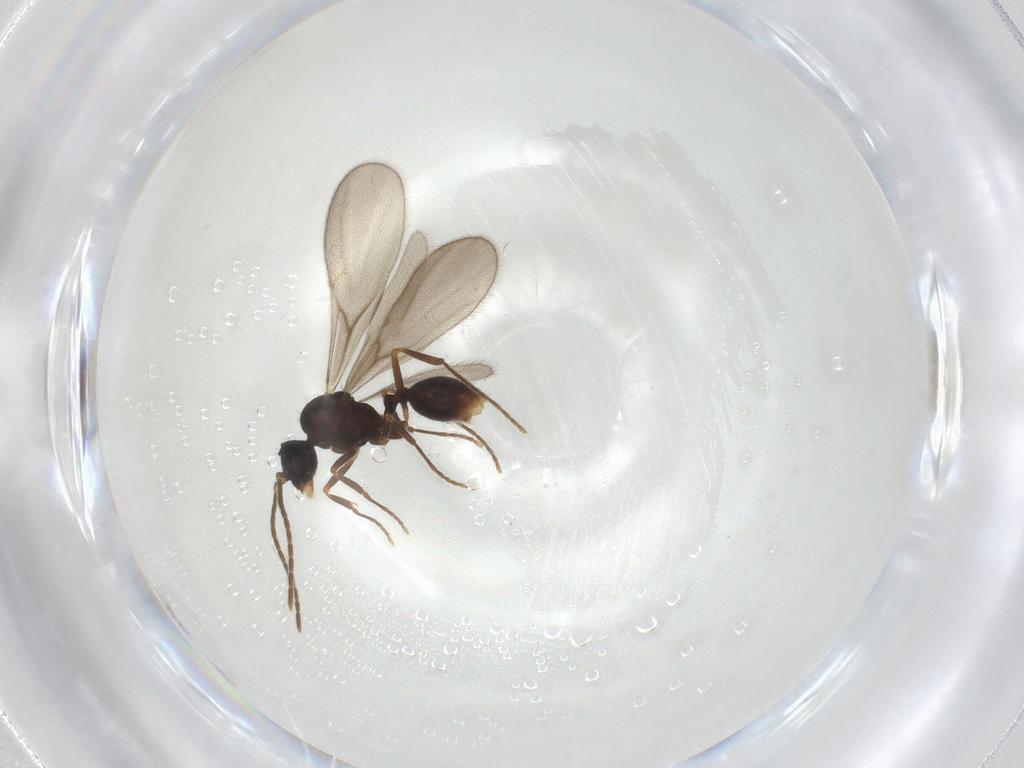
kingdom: Animalia
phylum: Arthropoda
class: Insecta
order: Hymenoptera
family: Formicidae
